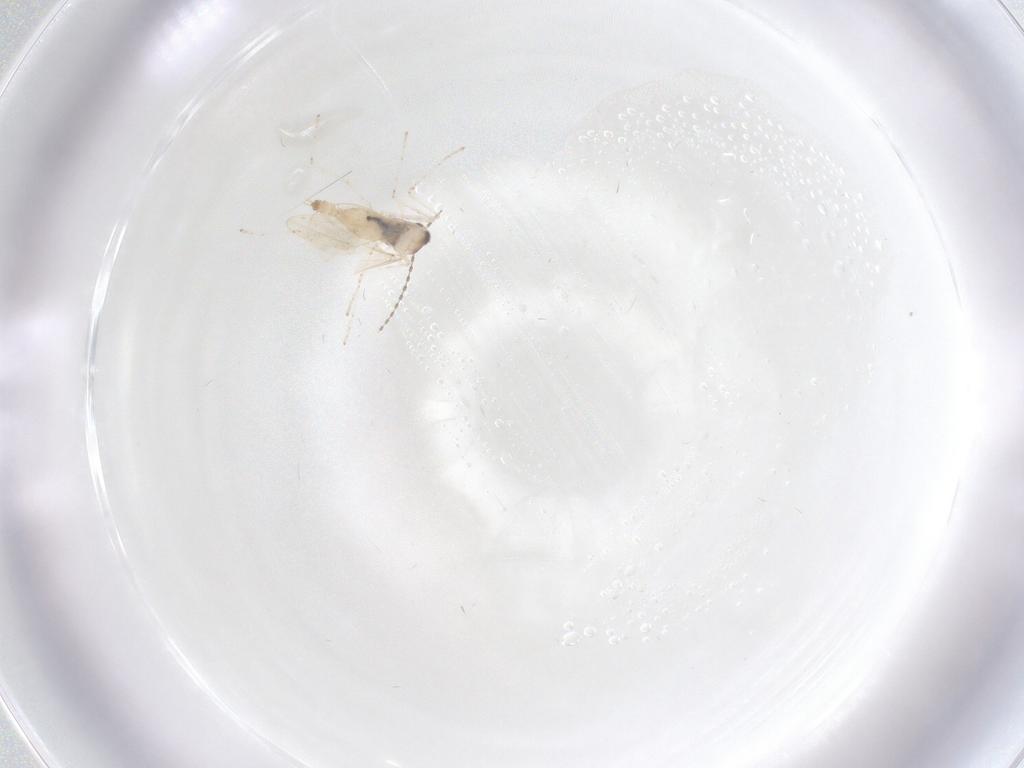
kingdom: Animalia
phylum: Arthropoda
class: Insecta
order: Diptera
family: Cecidomyiidae
